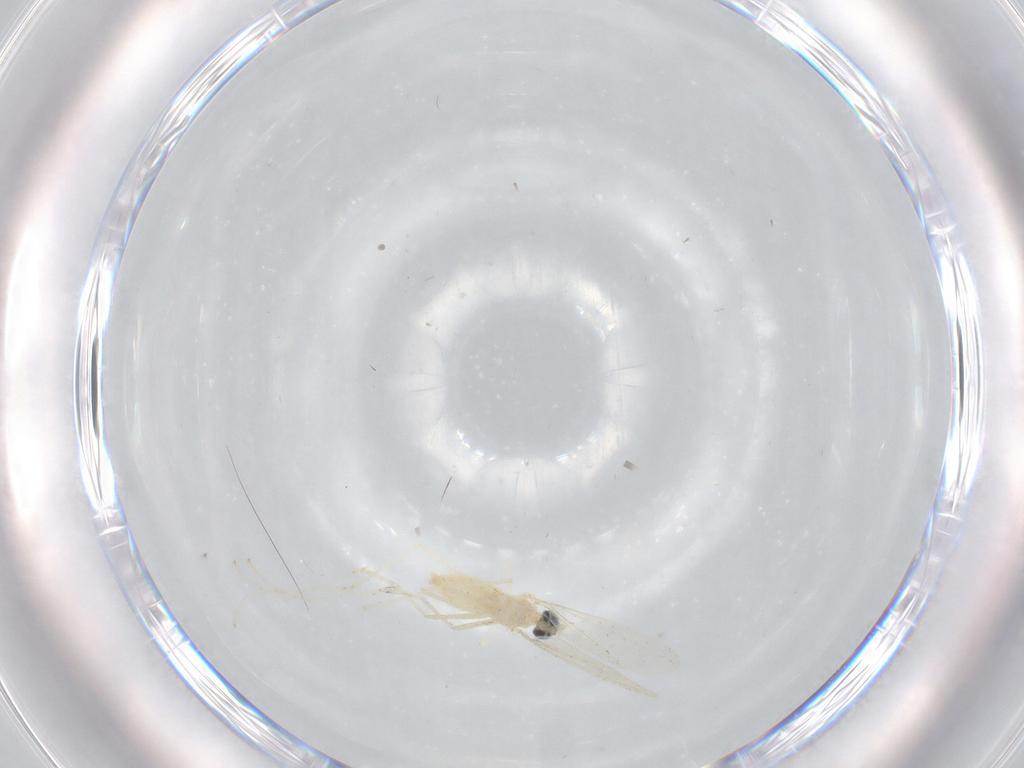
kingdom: Animalia
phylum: Arthropoda
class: Insecta
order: Diptera
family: Cecidomyiidae
